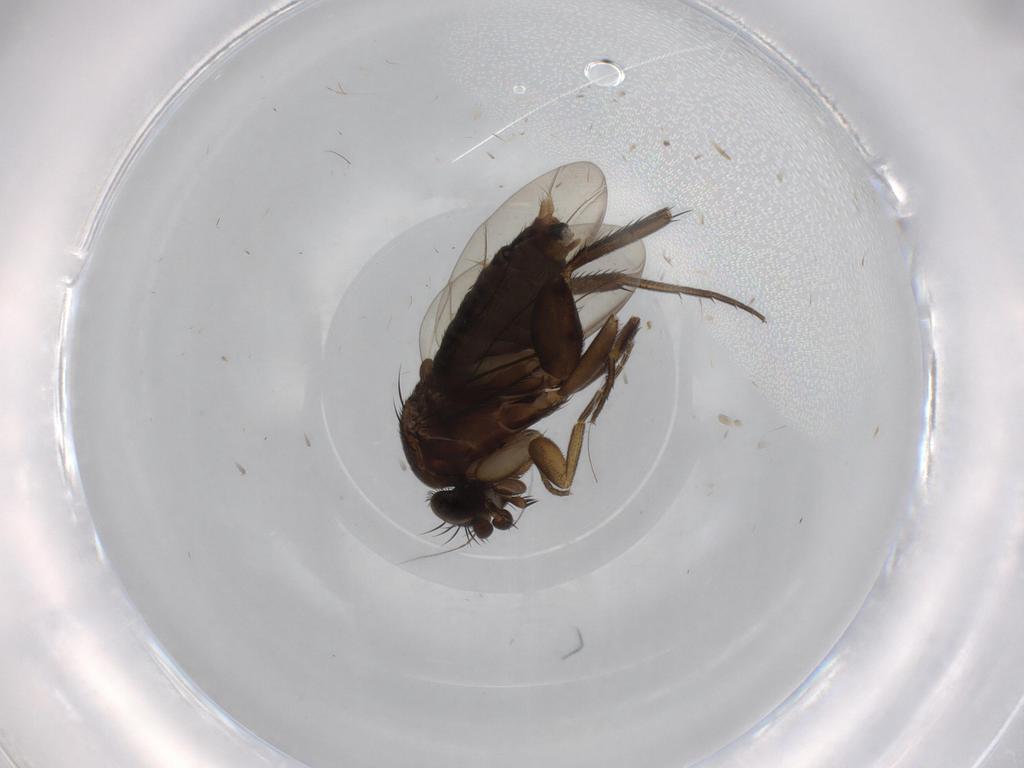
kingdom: Animalia
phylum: Arthropoda
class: Insecta
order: Diptera
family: Phoridae
